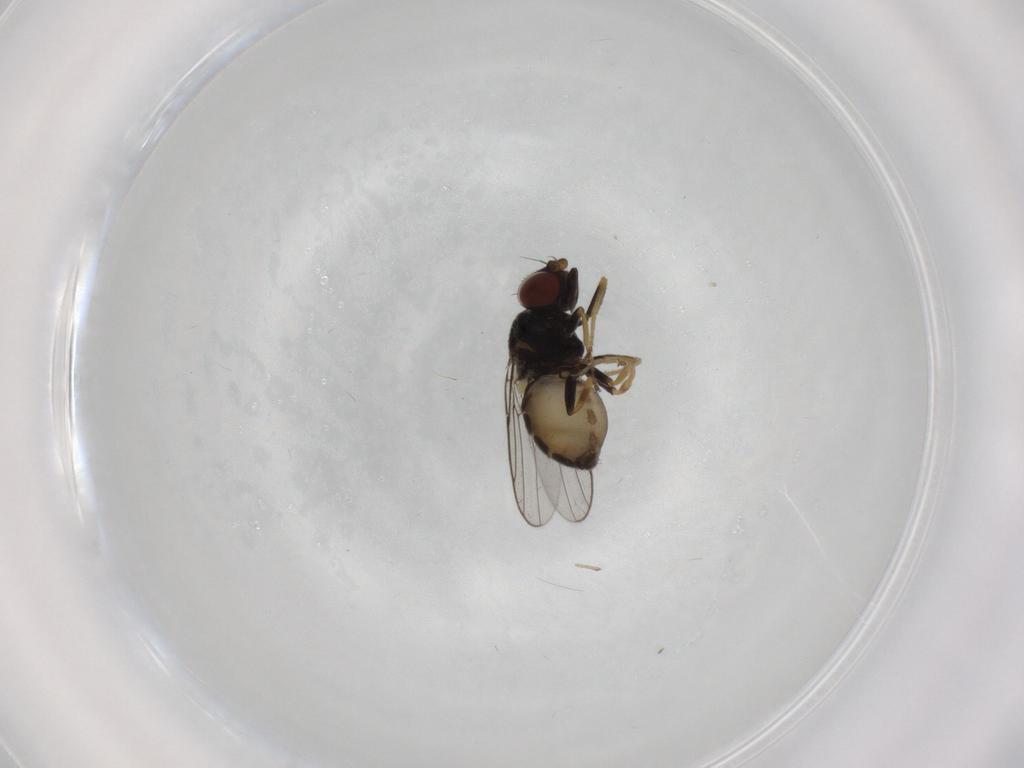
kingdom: Animalia
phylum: Arthropoda
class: Insecta
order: Diptera
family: Chloropidae
